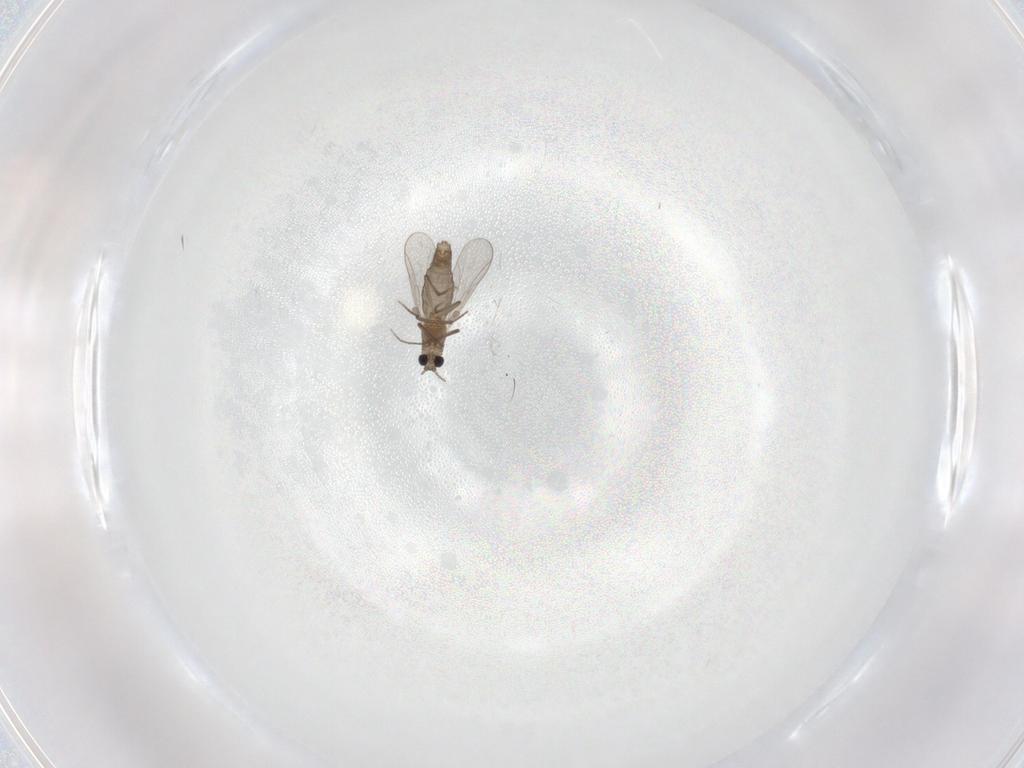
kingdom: Animalia
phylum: Arthropoda
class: Insecta
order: Diptera
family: Chironomidae
